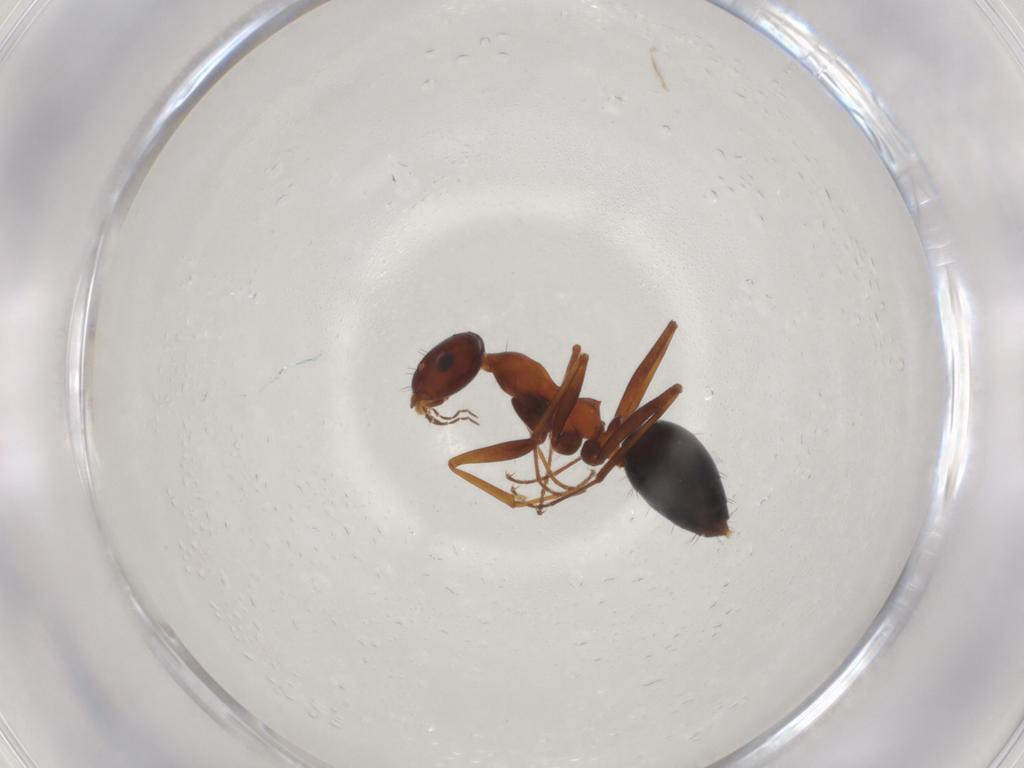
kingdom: Animalia
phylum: Arthropoda
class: Insecta
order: Hymenoptera
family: Formicidae
